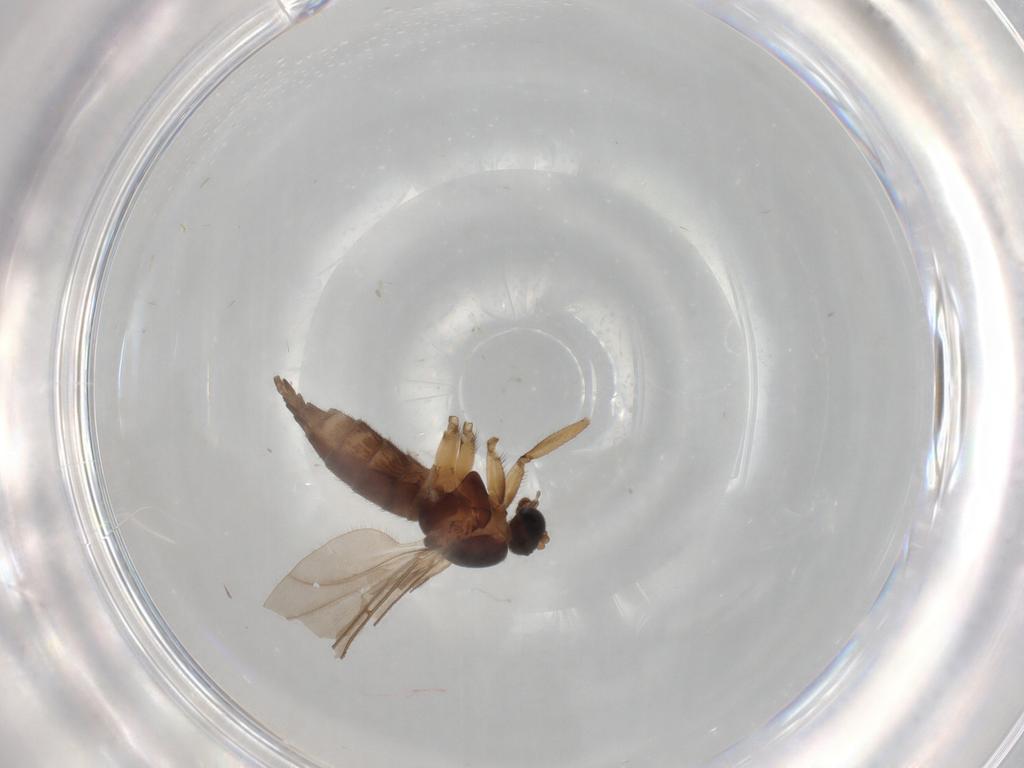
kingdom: Animalia
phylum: Arthropoda
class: Insecta
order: Diptera
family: Sciaridae
